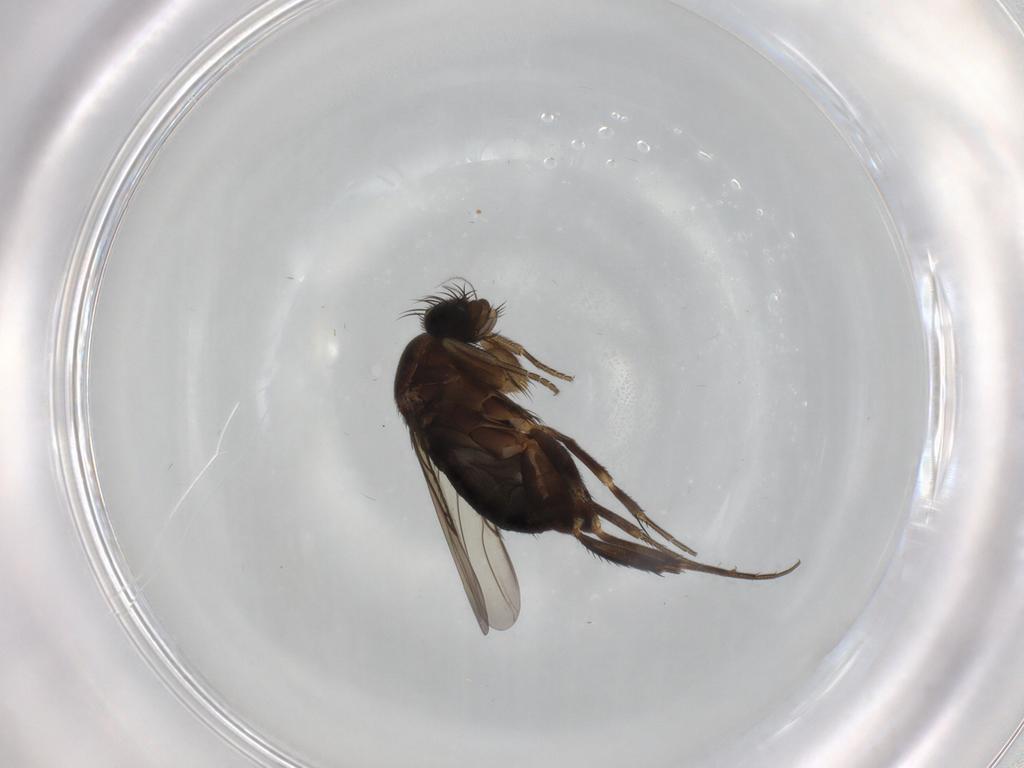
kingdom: Animalia
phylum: Arthropoda
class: Insecta
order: Diptera
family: Phoridae
